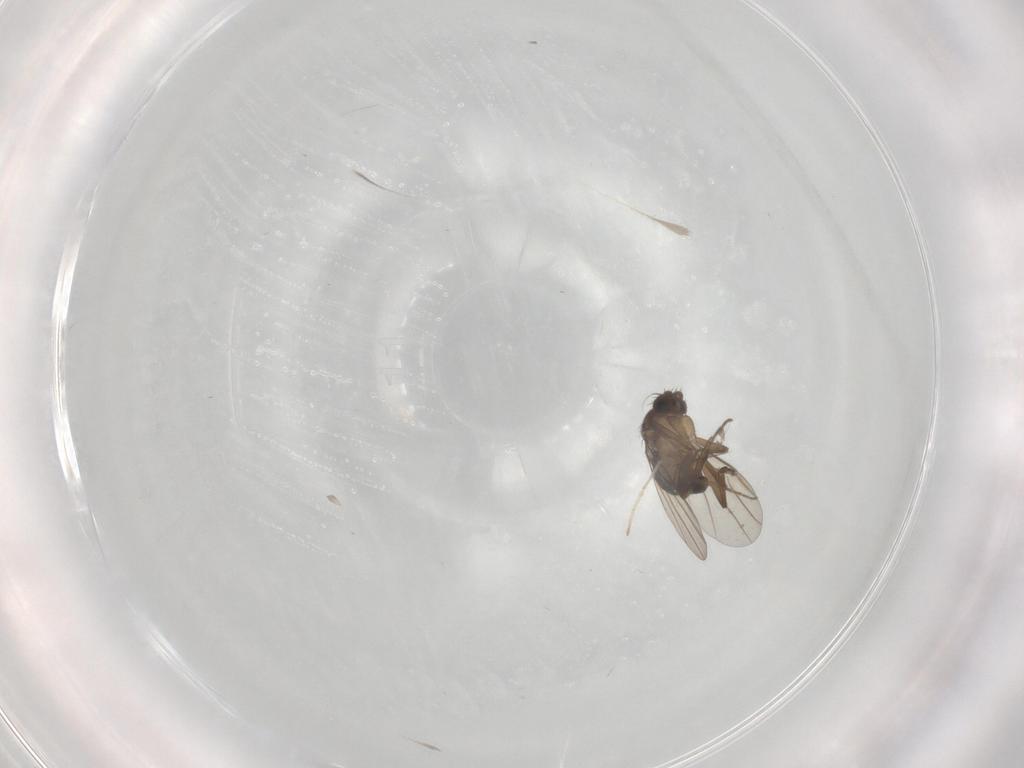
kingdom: Animalia
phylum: Arthropoda
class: Insecta
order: Diptera
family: Phoridae
